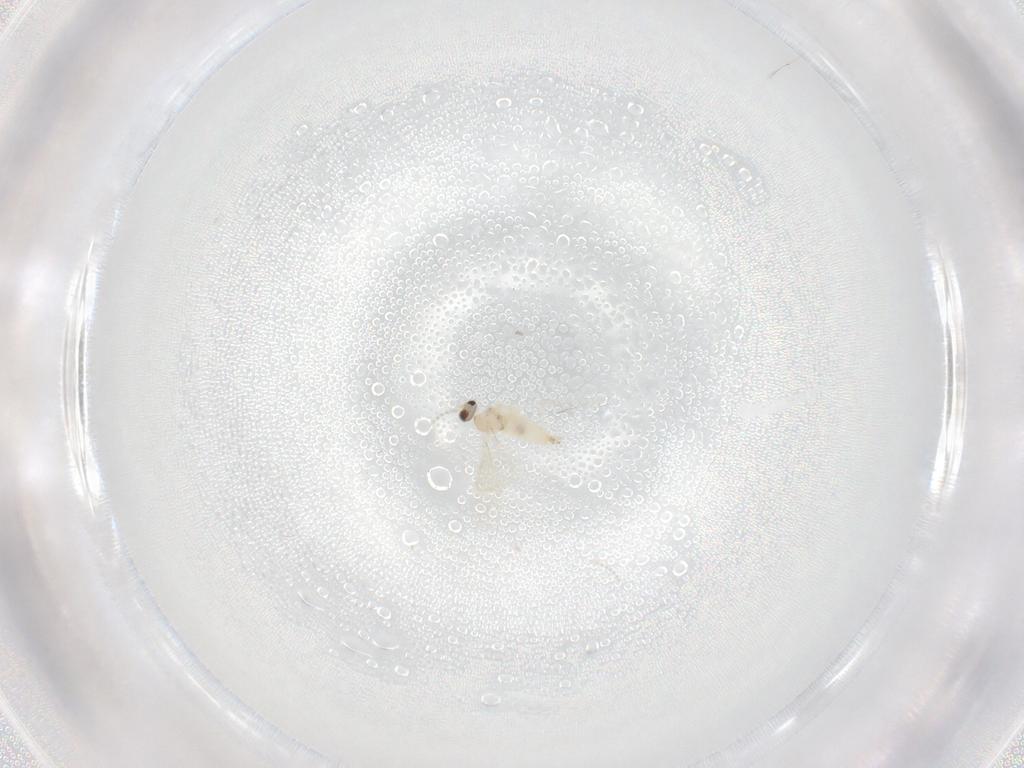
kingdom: Animalia
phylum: Arthropoda
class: Insecta
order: Diptera
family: Cecidomyiidae
